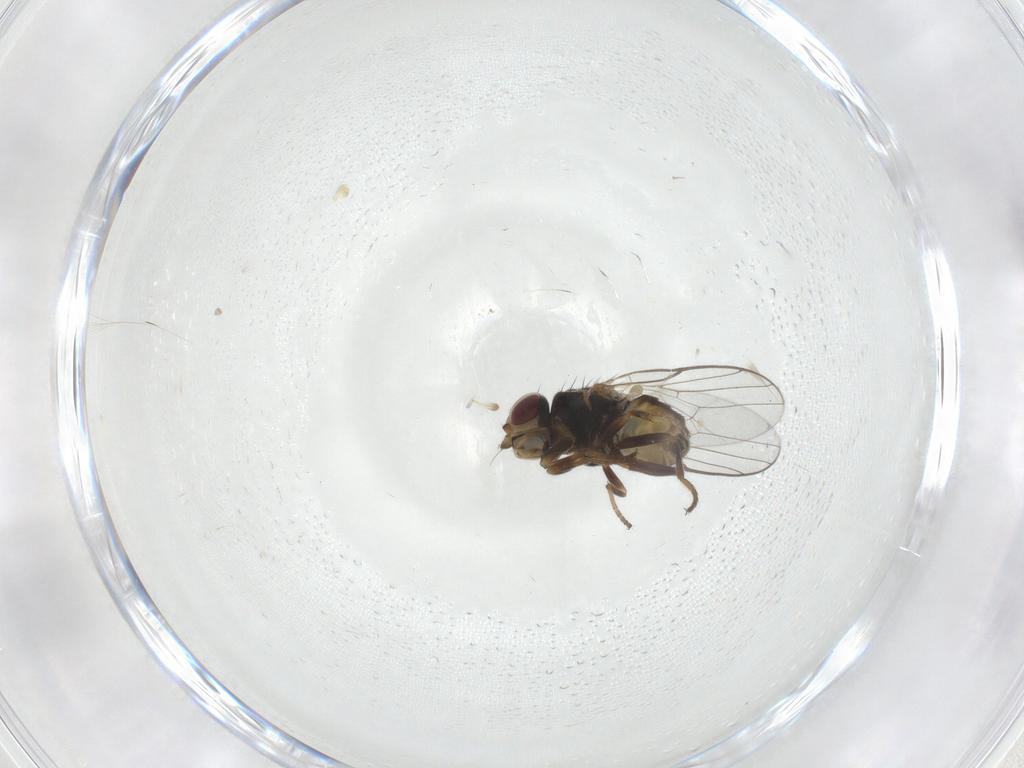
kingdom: Animalia
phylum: Arthropoda
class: Insecta
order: Diptera
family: Chloropidae
